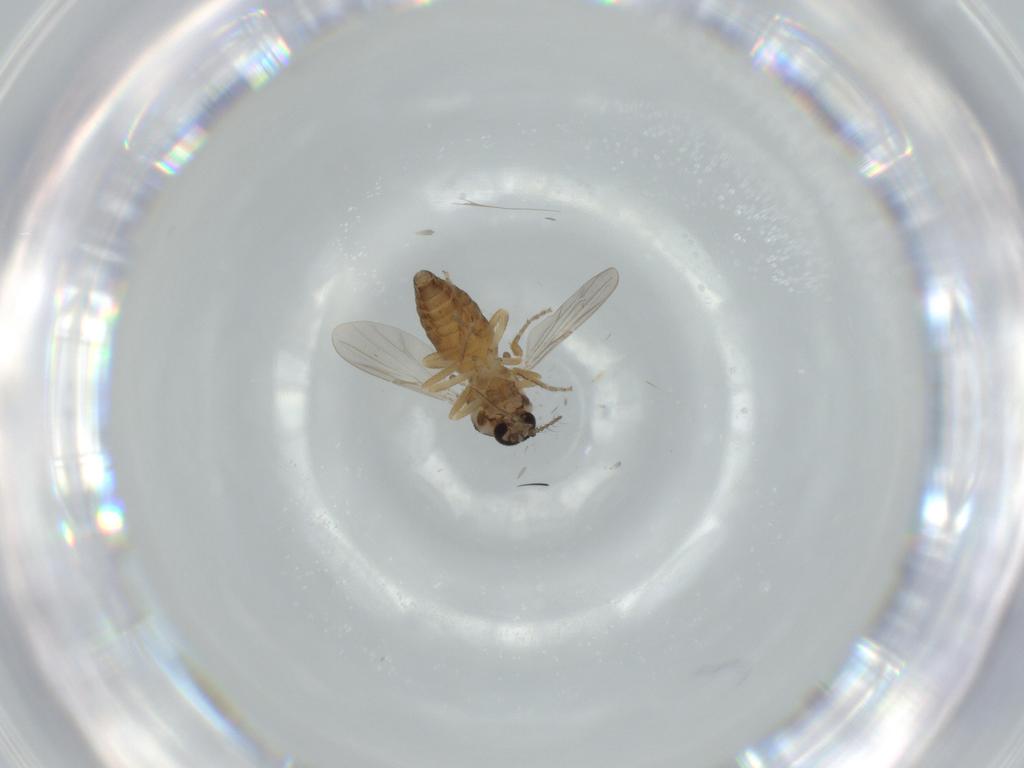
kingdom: Animalia
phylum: Arthropoda
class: Insecta
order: Diptera
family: Ceratopogonidae
